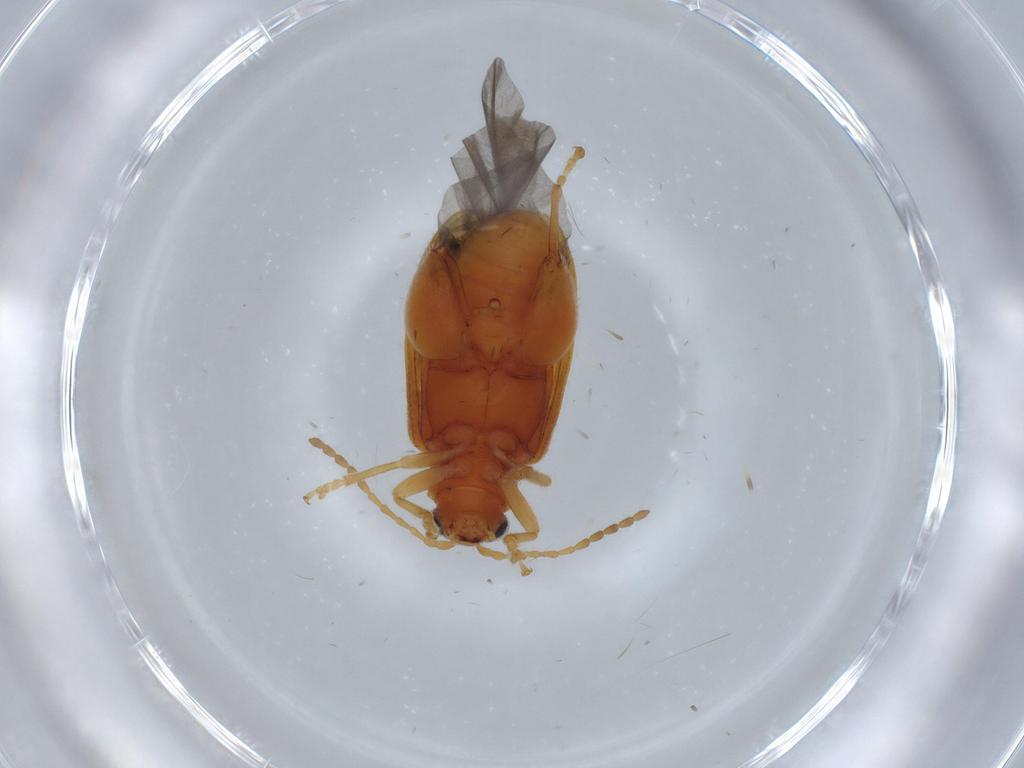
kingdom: Animalia
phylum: Arthropoda
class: Insecta
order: Coleoptera
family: Chrysomelidae
